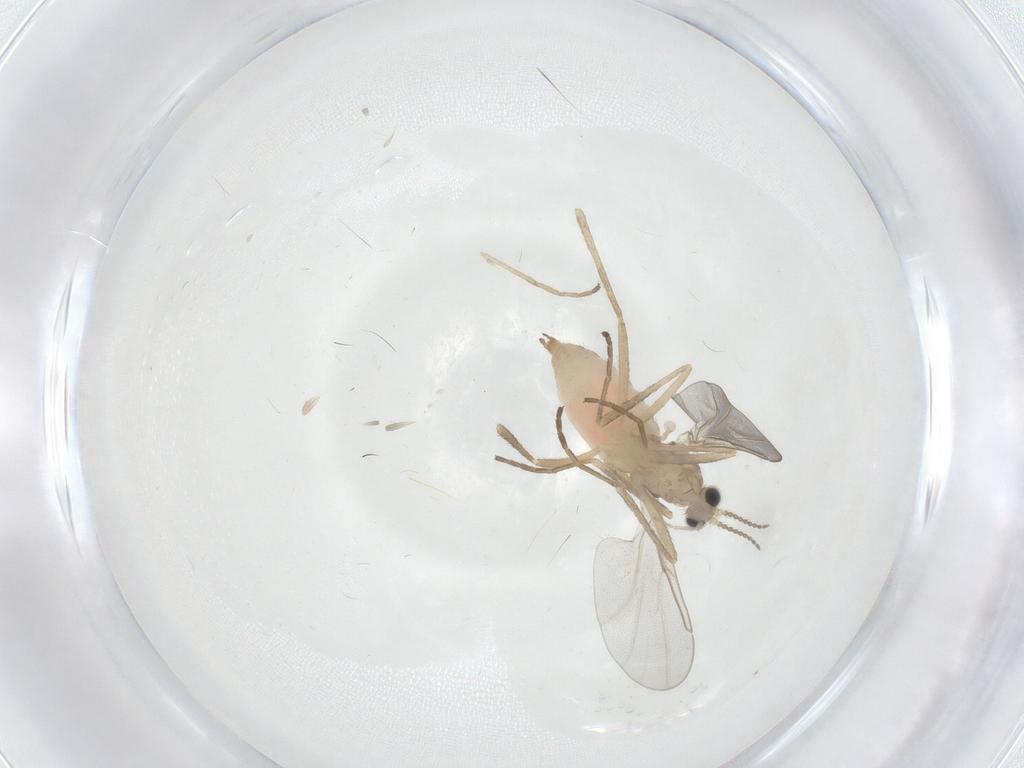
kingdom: Animalia
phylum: Arthropoda
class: Insecta
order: Diptera
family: Cecidomyiidae
